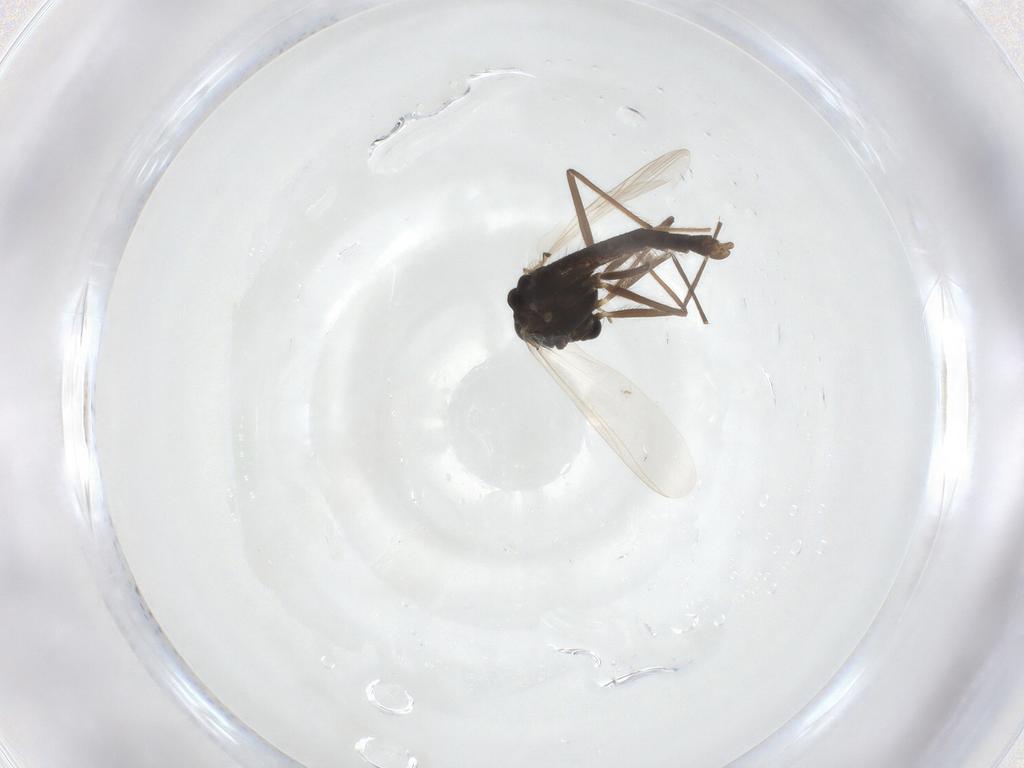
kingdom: Animalia
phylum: Arthropoda
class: Insecta
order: Diptera
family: Chironomidae
